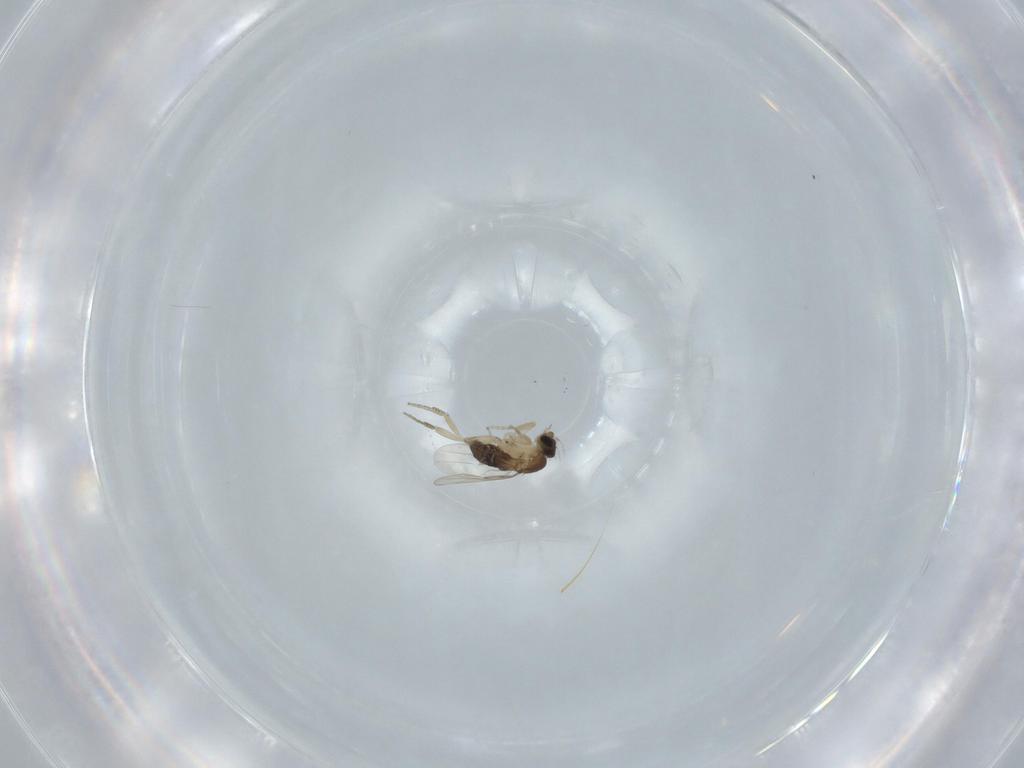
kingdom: Animalia
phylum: Arthropoda
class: Insecta
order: Diptera
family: Phoridae
